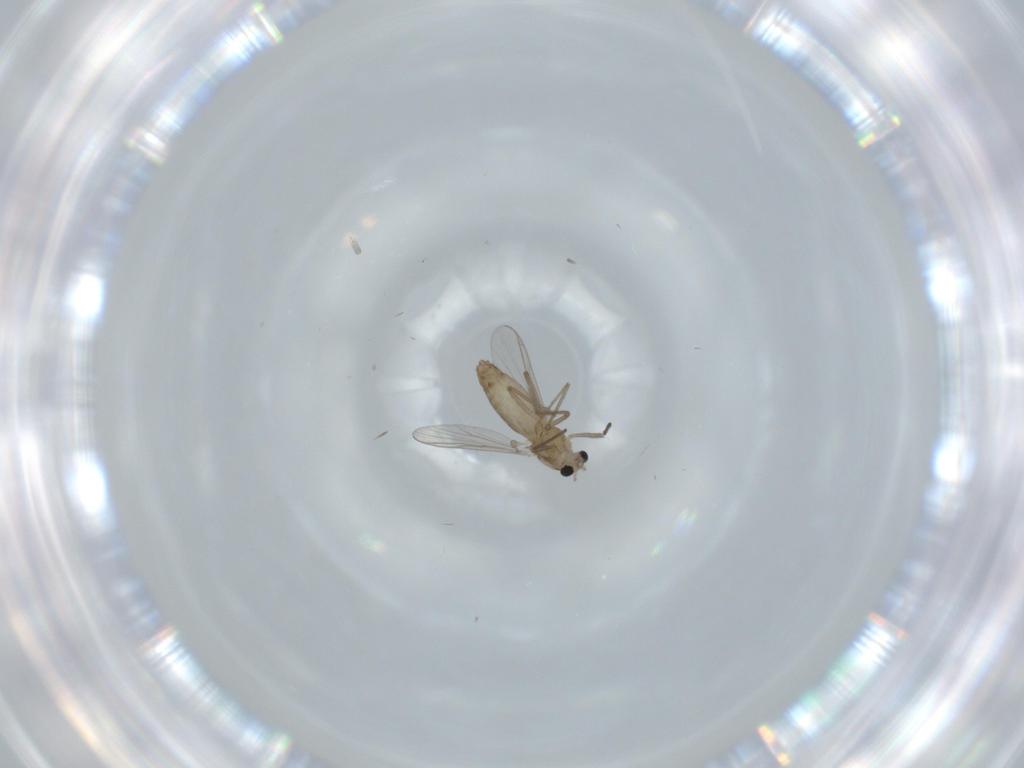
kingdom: Animalia
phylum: Arthropoda
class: Insecta
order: Diptera
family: Chironomidae
